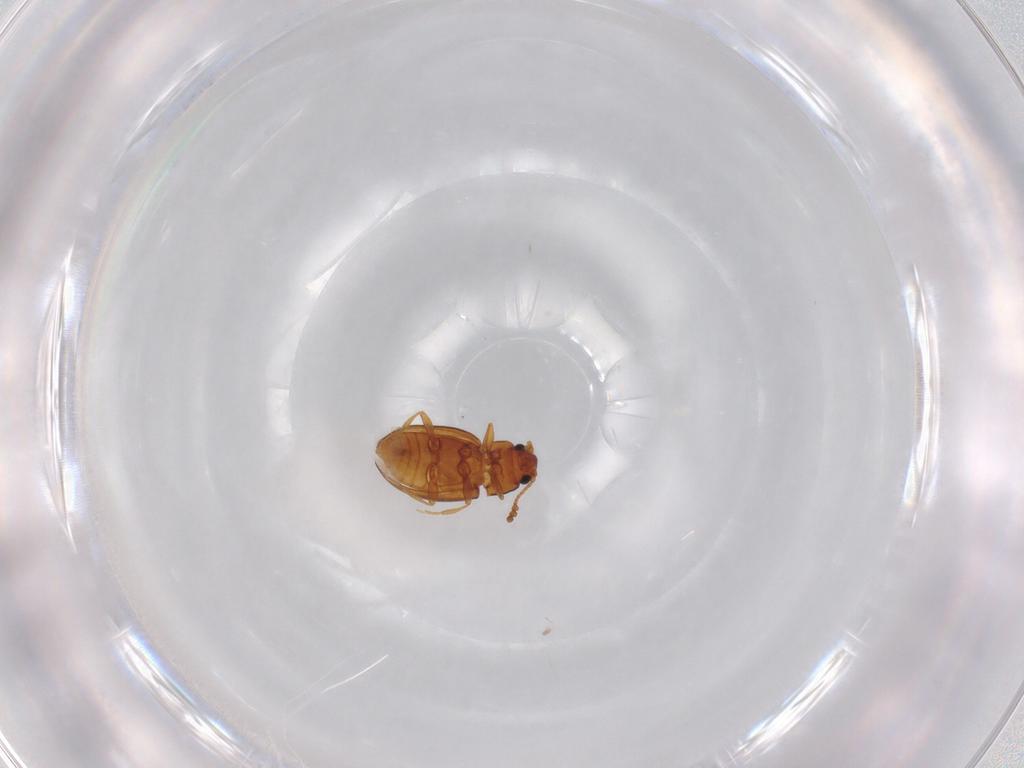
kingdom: Animalia
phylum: Arthropoda
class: Insecta
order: Coleoptera
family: Erotylidae
